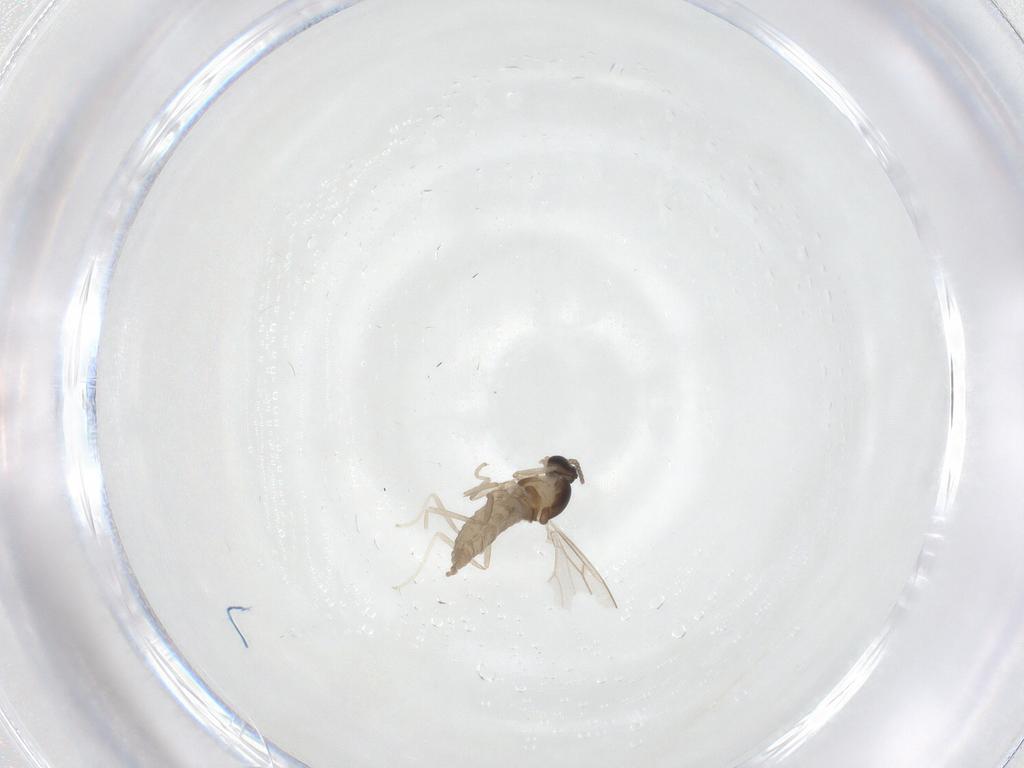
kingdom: Animalia
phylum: Arthropoda
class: Insecta
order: Diptera
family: Cecidomyiidae
